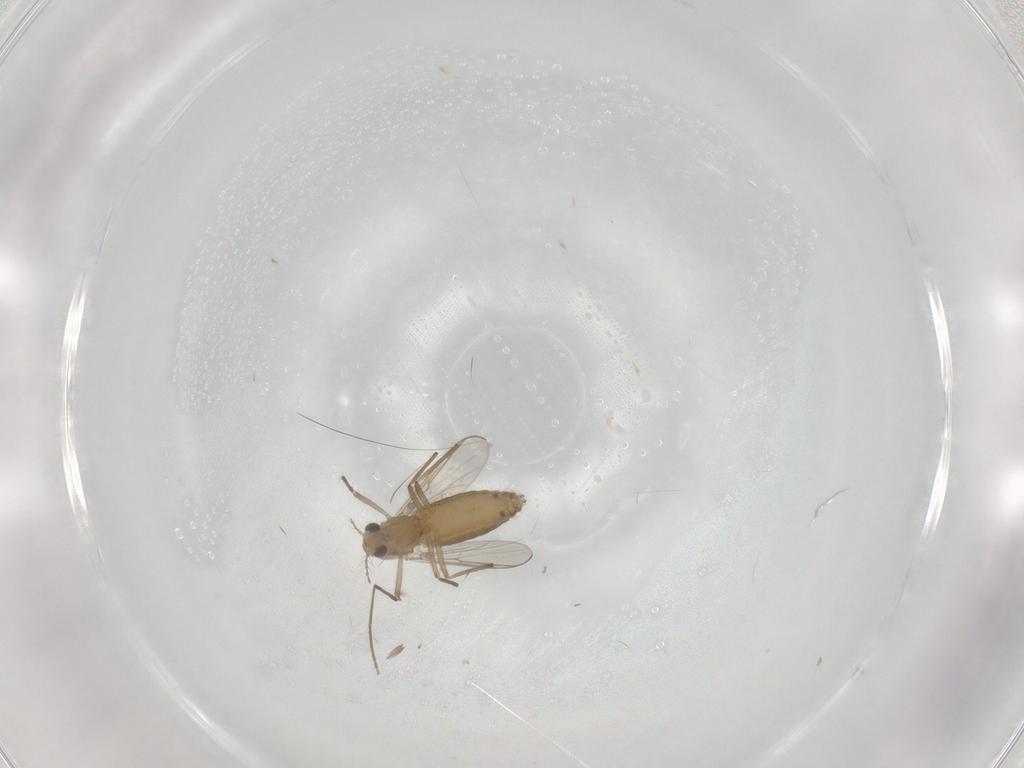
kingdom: Animalia
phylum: Arthropoda
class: Insecta
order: Diptera
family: Chironomidae
